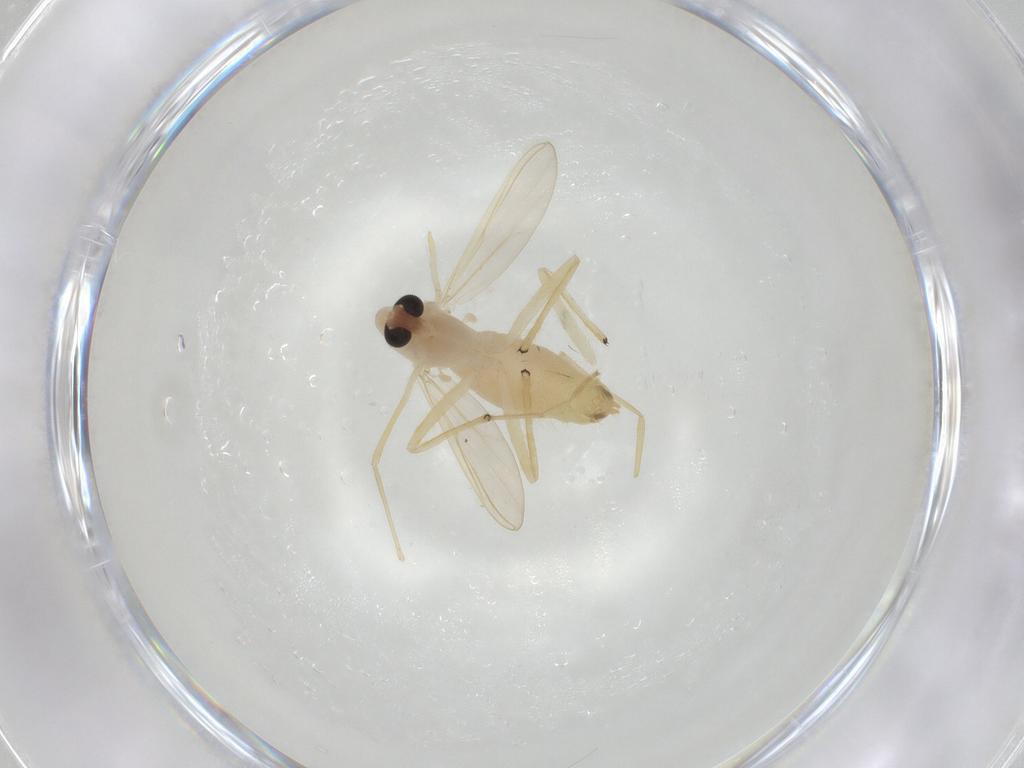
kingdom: Animalia
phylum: Arthropoda
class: Insecta
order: Diptera
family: Chironomidae
